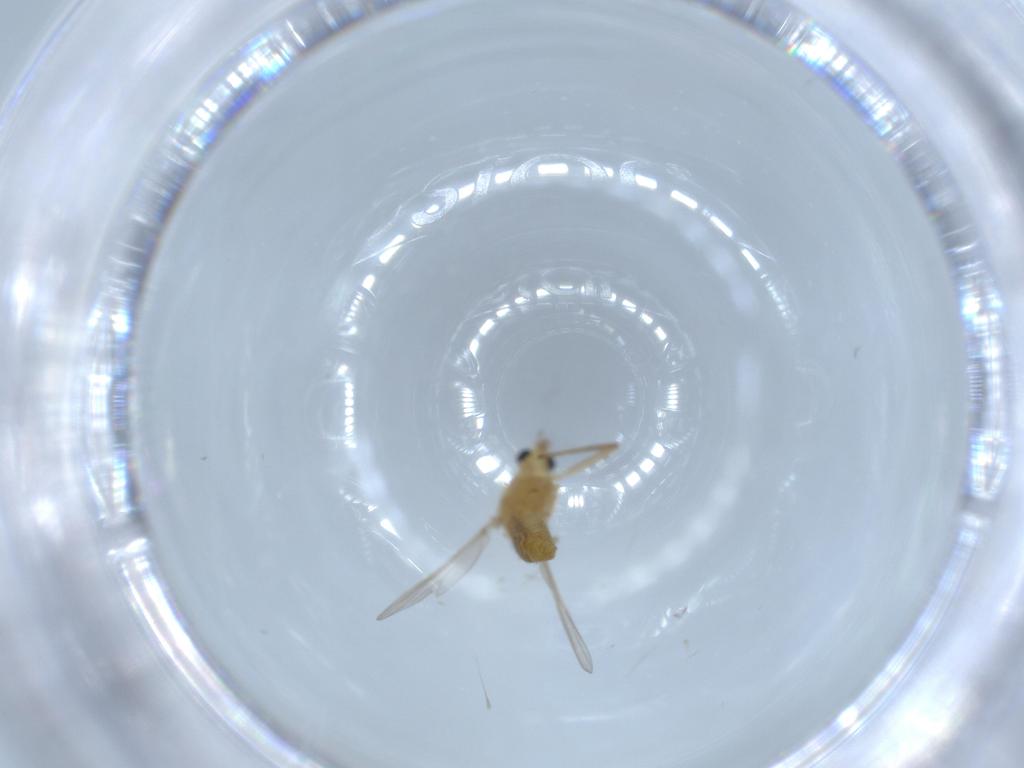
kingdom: Animalia
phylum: Arthropoda
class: Insecta
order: Diptera
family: Chironomidae
